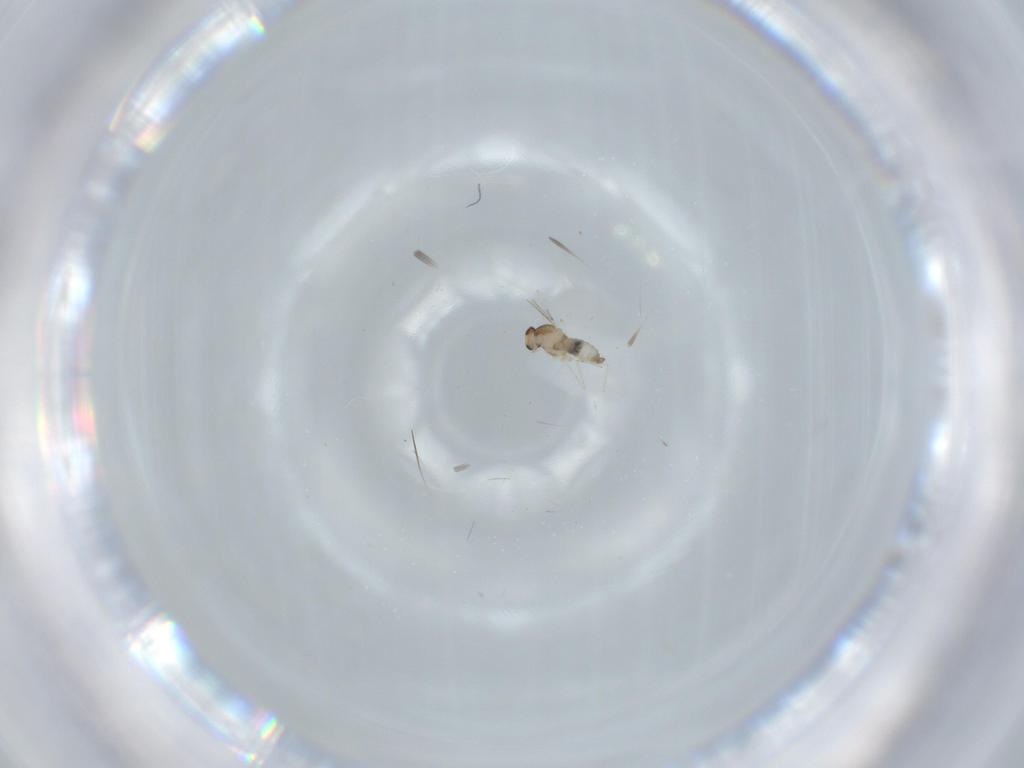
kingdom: Animalia
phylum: Arthropoda
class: Insecta
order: Diptera
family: Cecidomyiidae
